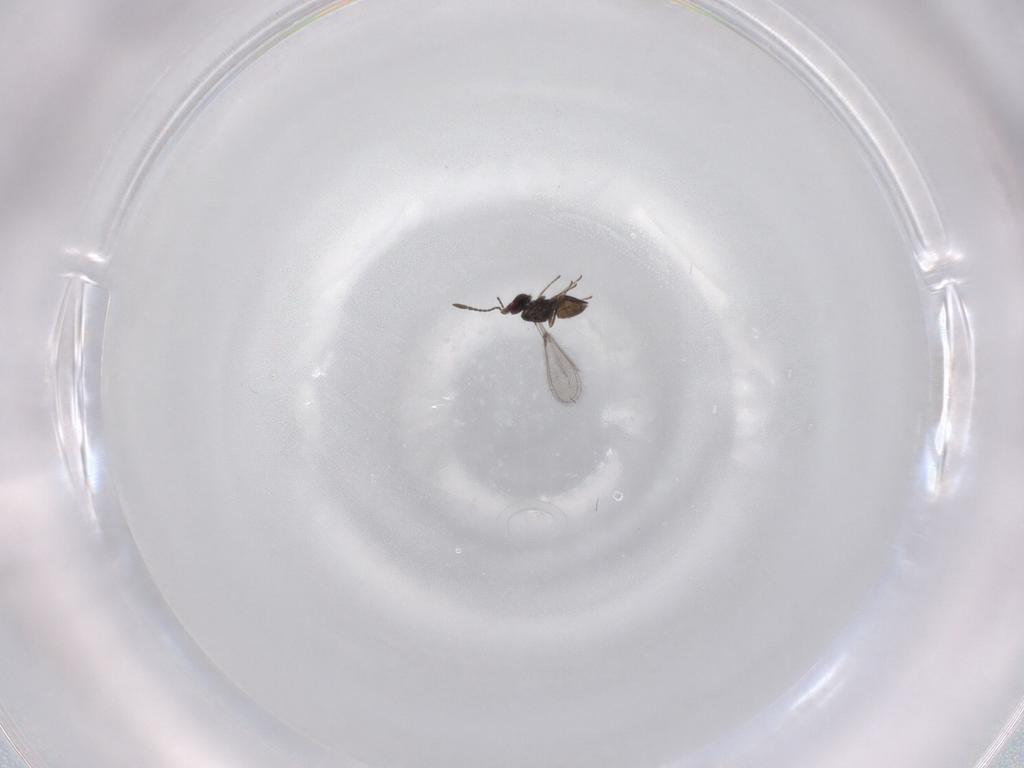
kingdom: Animalia
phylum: Arthropoda
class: Insecta
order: Hymenoptera
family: Mymaridae
